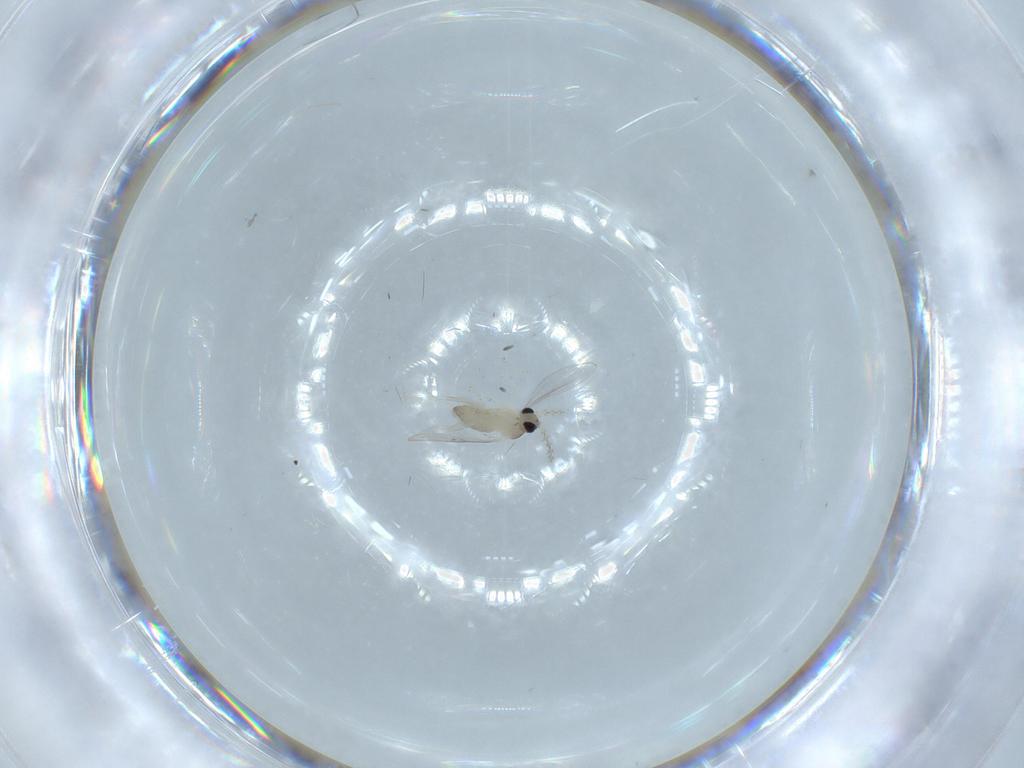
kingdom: Animalia
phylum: Arthropoda
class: Insecta
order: Diptera
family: Cecidomyiidae
